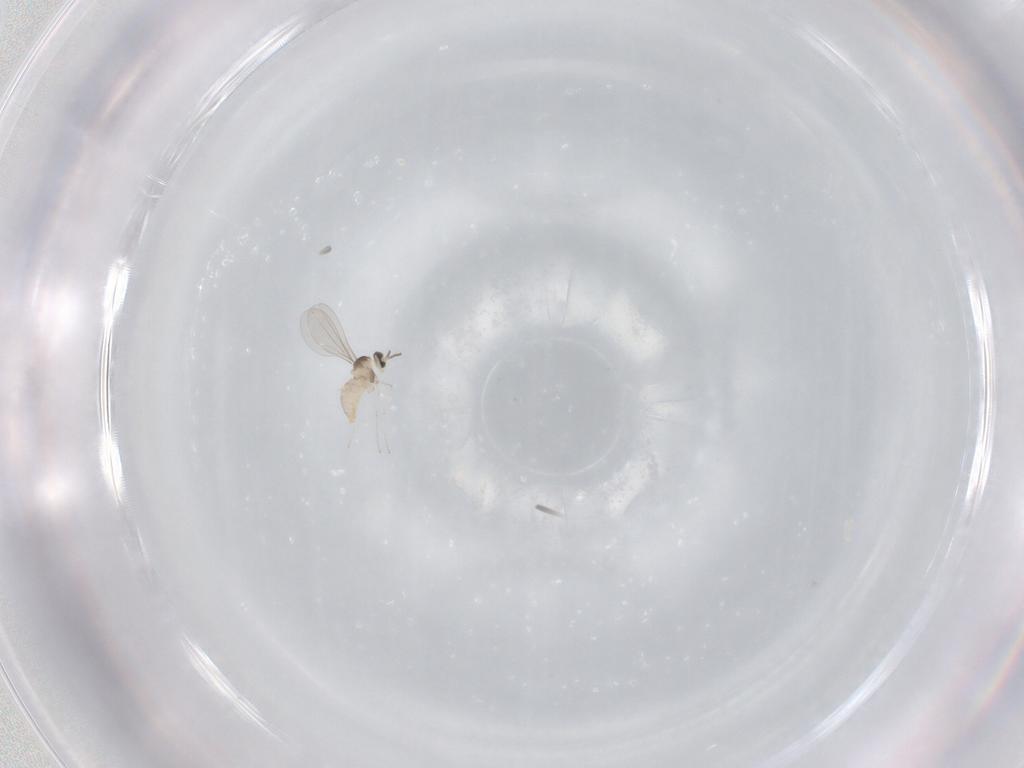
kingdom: Animalia
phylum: Arthropoda
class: Insecta
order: Diptera
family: Cecidomyiidae
